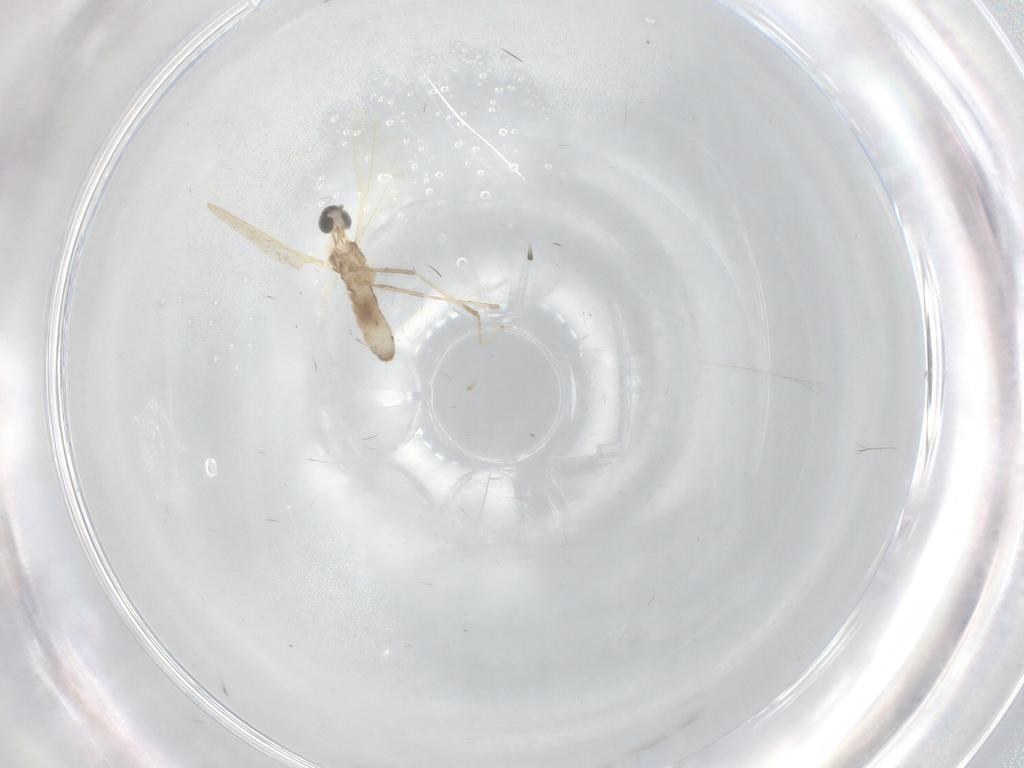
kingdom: Animalia
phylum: Arthropoda
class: Insecta
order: Diptera
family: Cecidomyiidae
